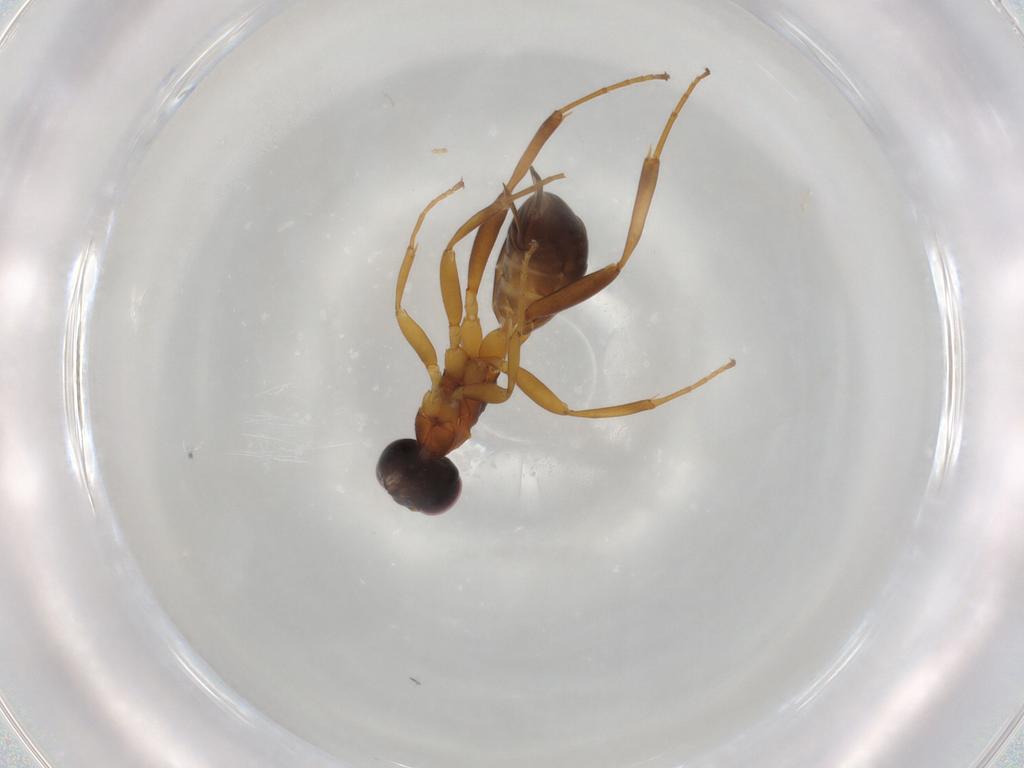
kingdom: Animalia
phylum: Arthropoda
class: Insecta
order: Hymenoptera
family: Ichneumonidae
